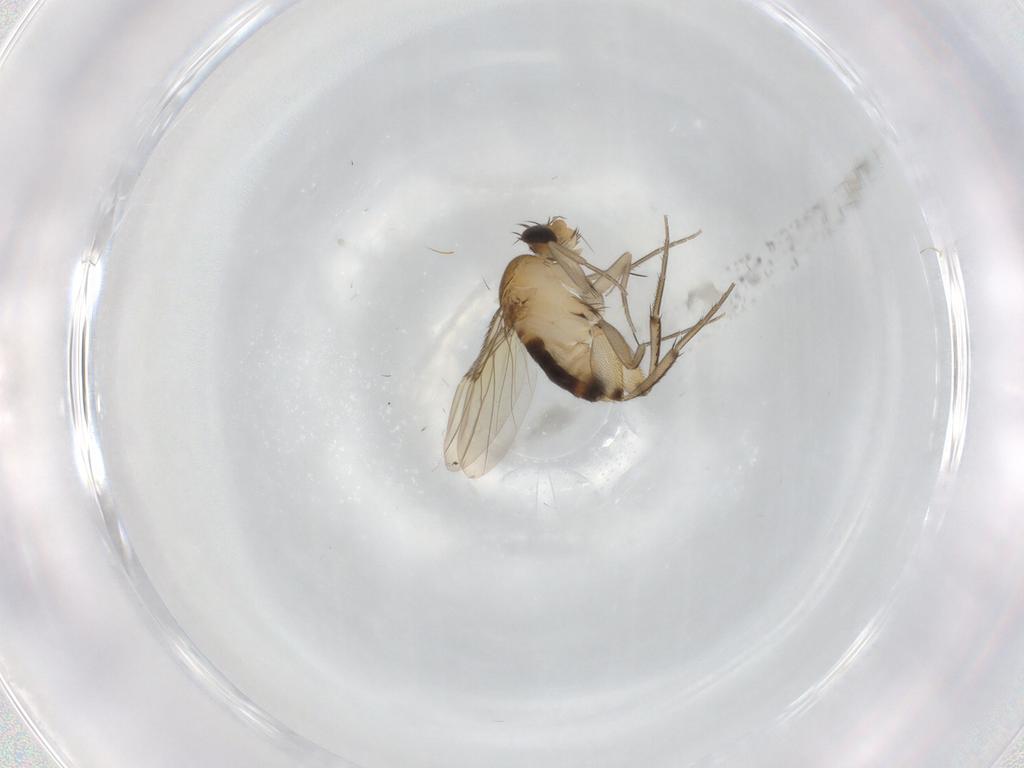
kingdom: Animalia
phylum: Arthropoda
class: Insecta
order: Diptera
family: Phoridae
